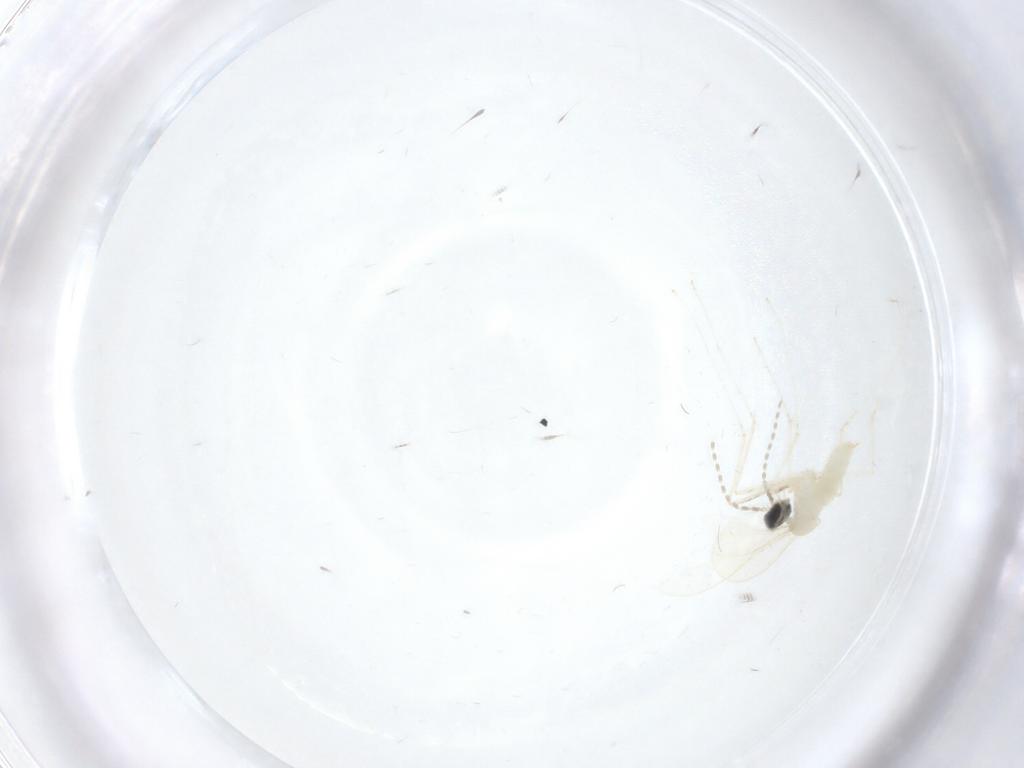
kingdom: Animalia
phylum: Arthropoda
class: Insecta
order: Diptera
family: Cecidomyiidae
